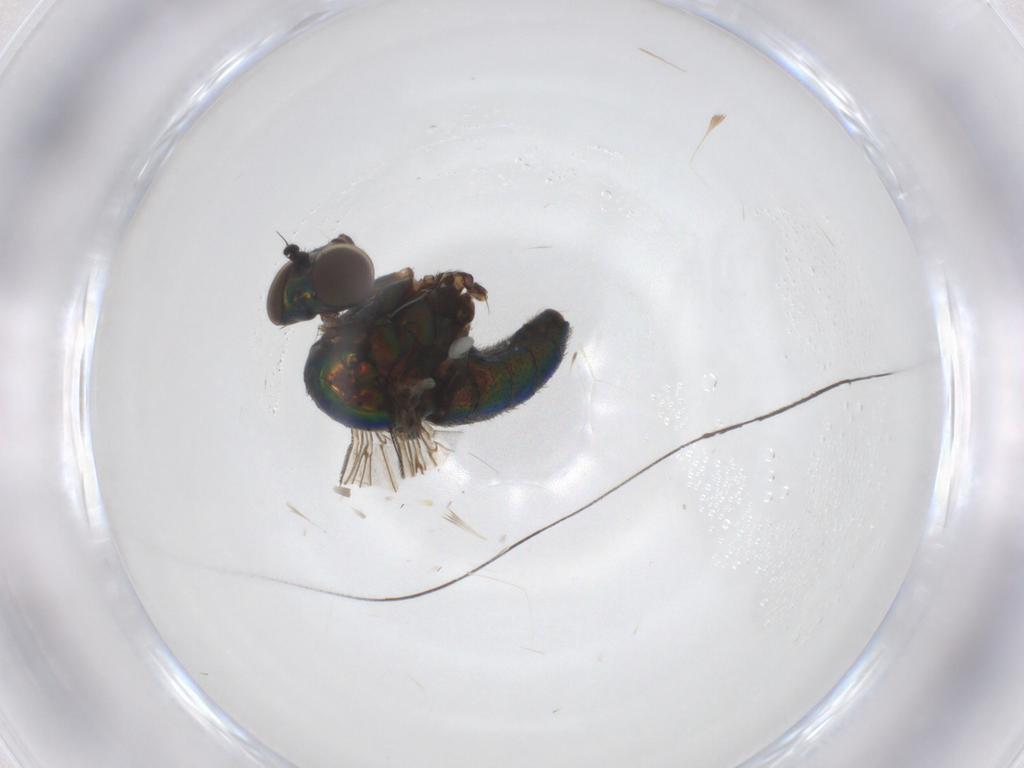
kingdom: Animalia
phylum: Arthropoda
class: Insecta
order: Diptera
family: Dolichopodidae
